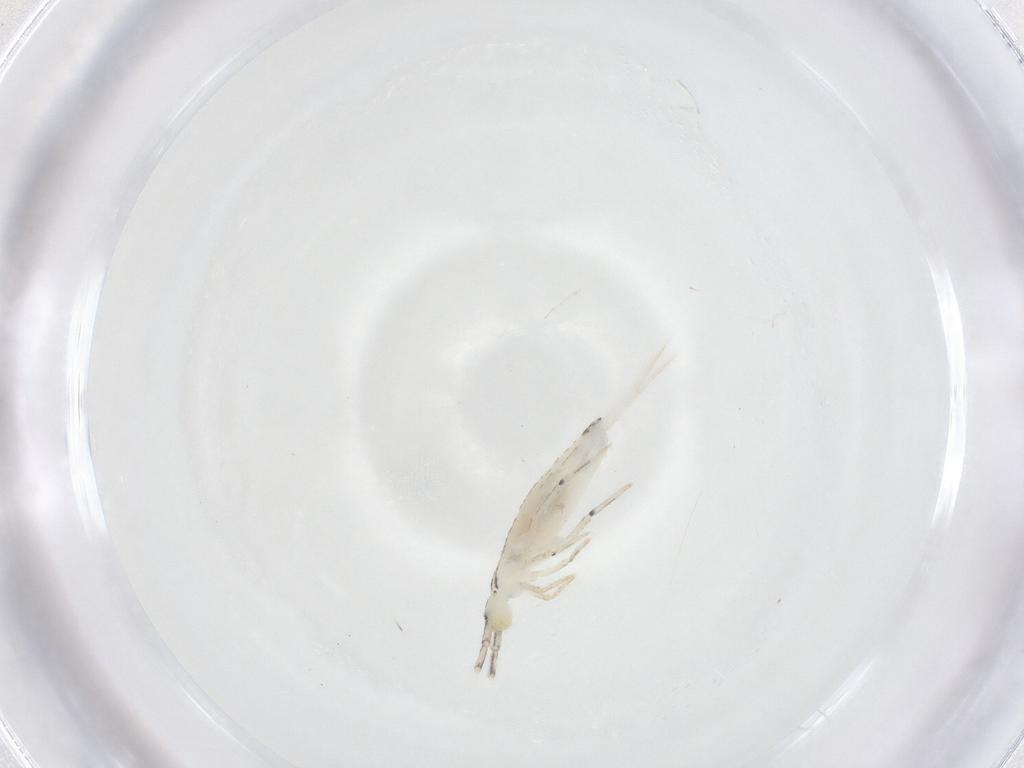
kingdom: Animalia
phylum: Arthropoda
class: Collembola
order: Entomobryomorpha
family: Entomobryidae
